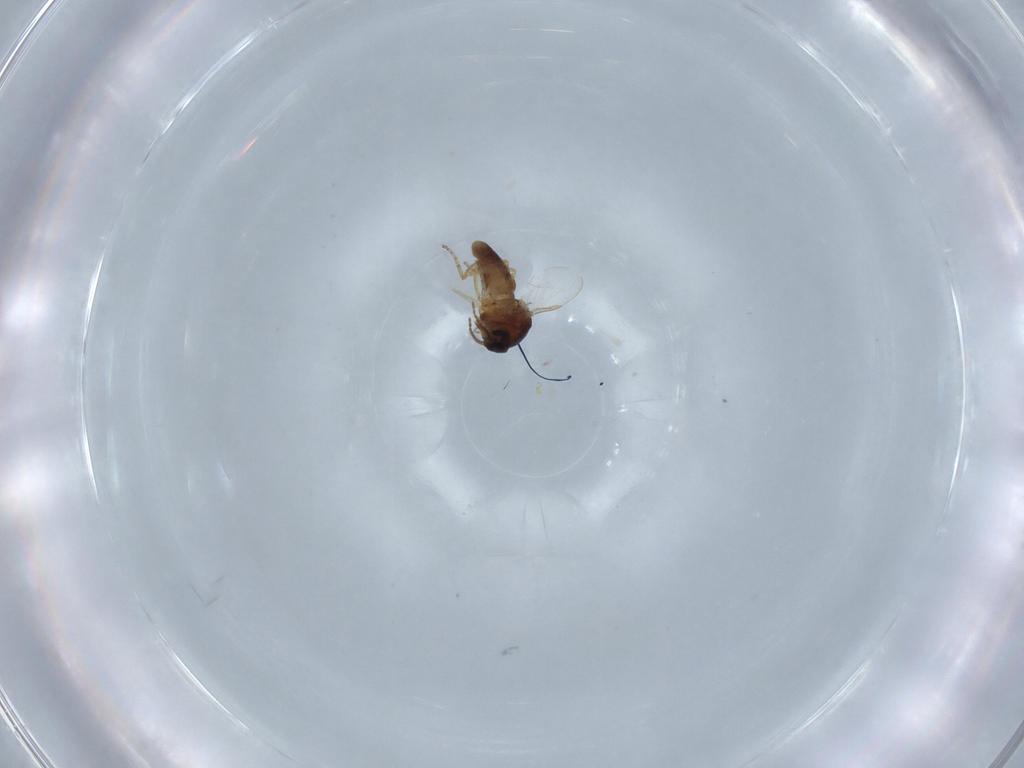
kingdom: Animalia
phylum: Arthropoda
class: Insecta
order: Diptera
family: Ceratopogonidae
